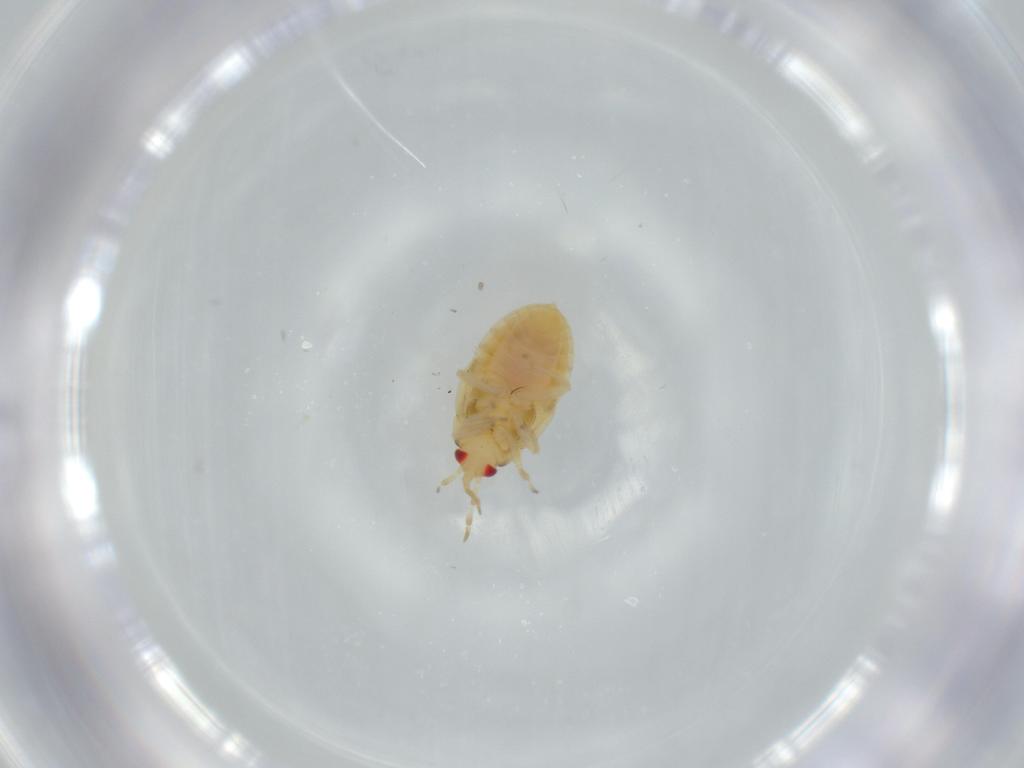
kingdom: Animalia
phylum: Arthropoda
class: Insecta
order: Hemiptera
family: Anthocoridae
